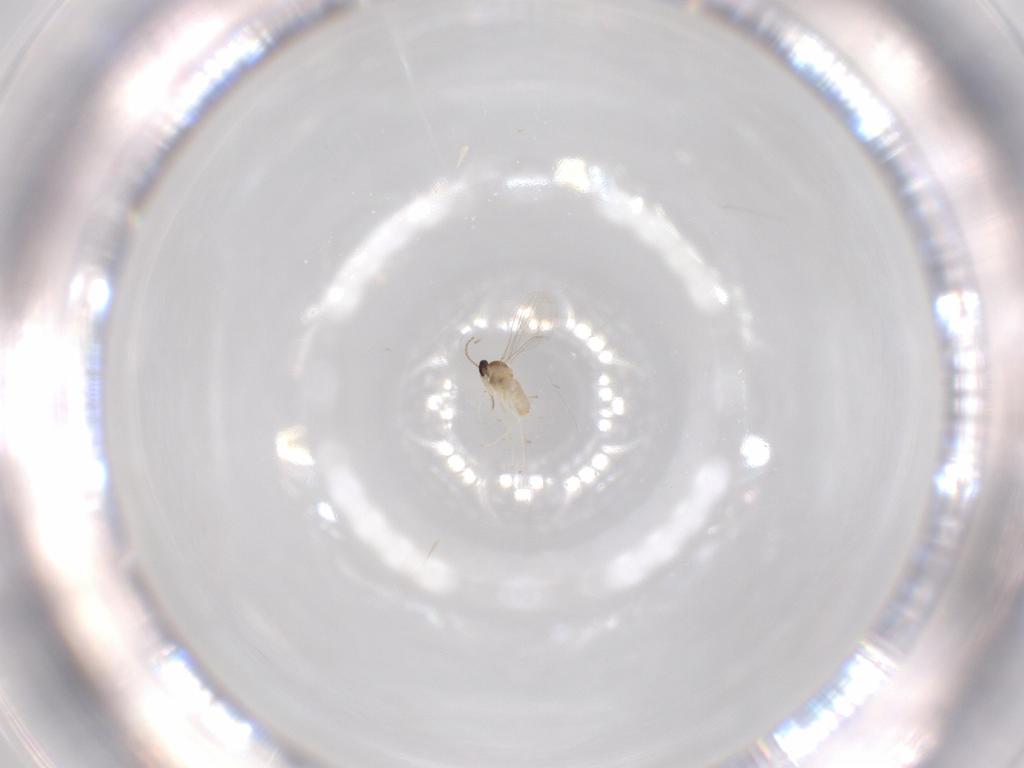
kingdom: Animalia
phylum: Arthropoda
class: Insecta
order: Diptera
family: Cecidomyiidae
